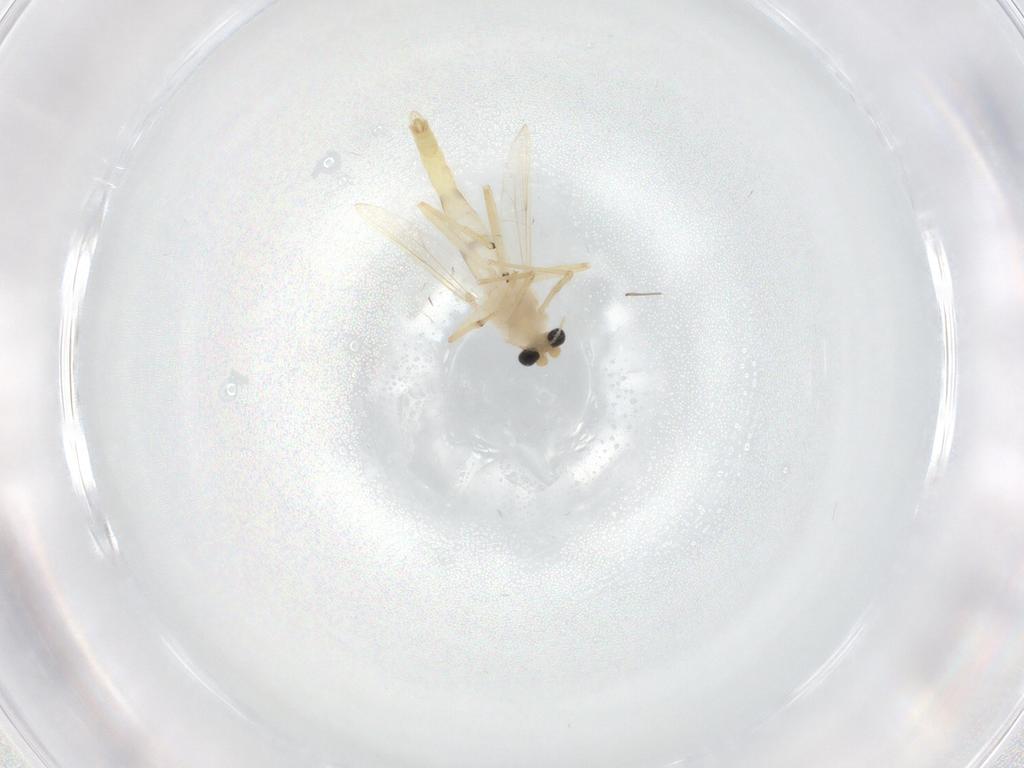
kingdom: Animalia
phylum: Arthropoda
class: Insecta
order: Diptera
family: Chironomidae
